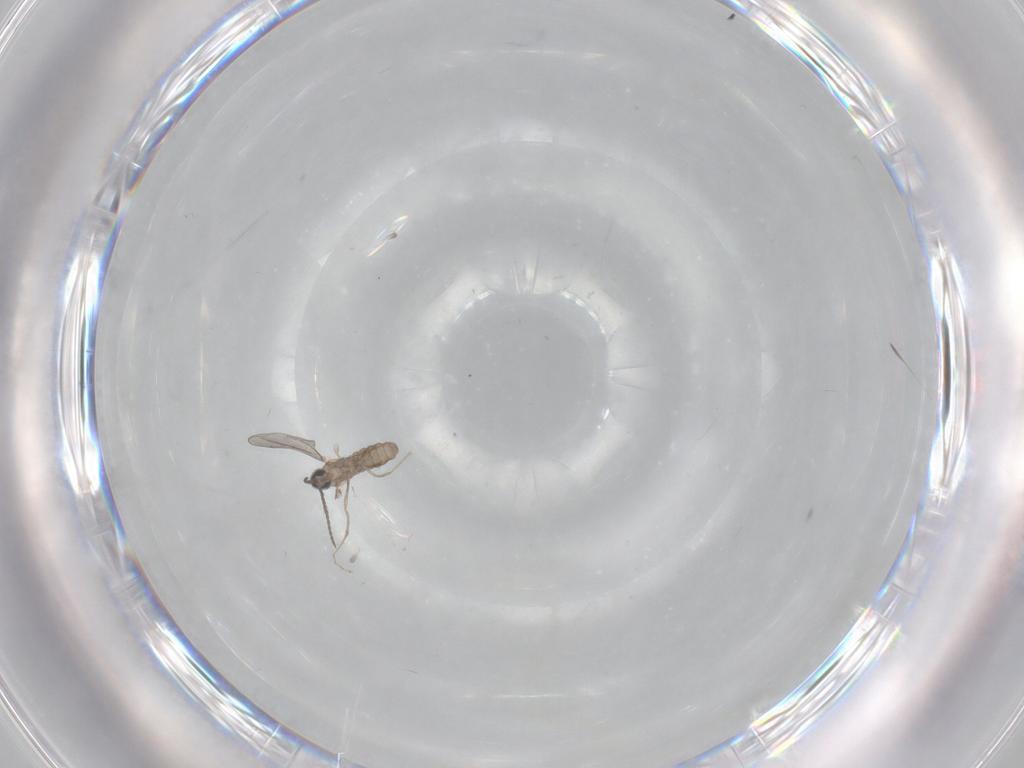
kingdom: Animalia
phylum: Arthropoda
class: Insecta
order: Diptera
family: Cecidomyiidae
